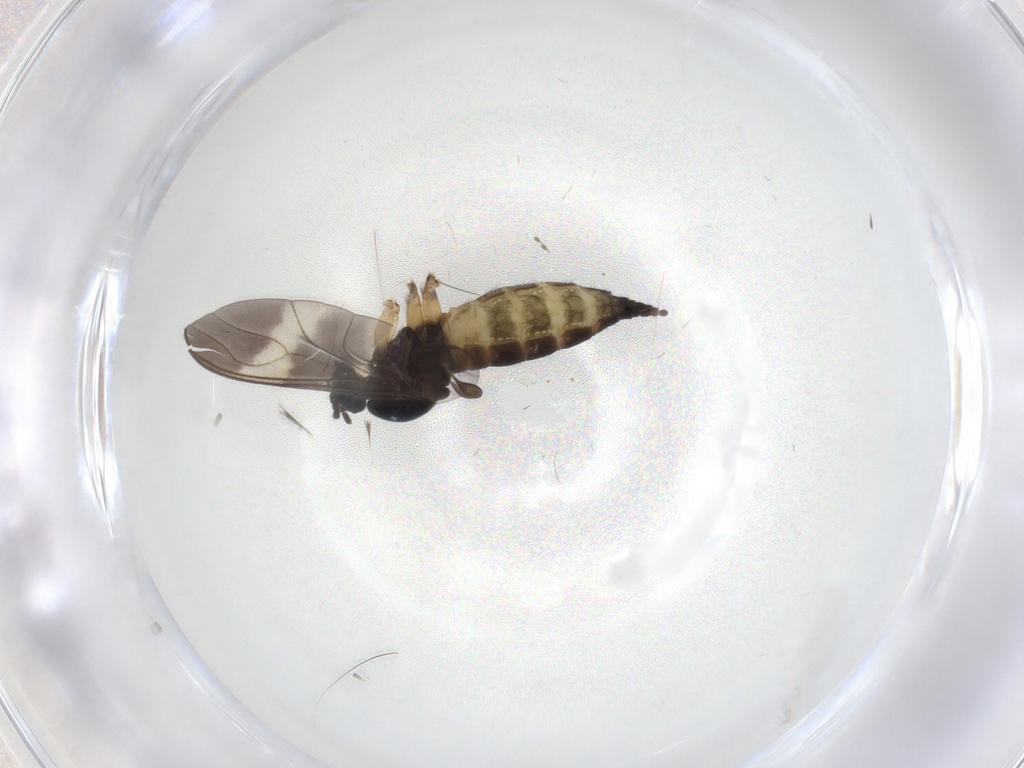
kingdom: Animalia
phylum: Arthropoda
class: Insecta
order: Diptera
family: Sciaridae
